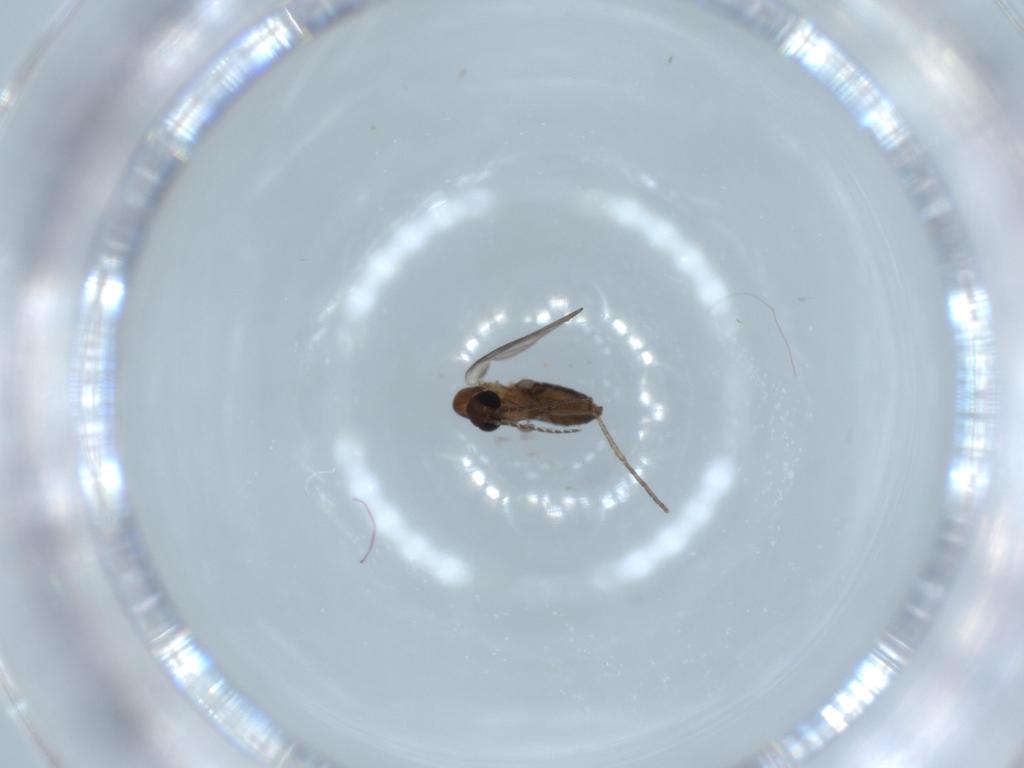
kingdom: Animalia
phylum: Arthropoda
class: Insecta
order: Diptera
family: Psychodidae
